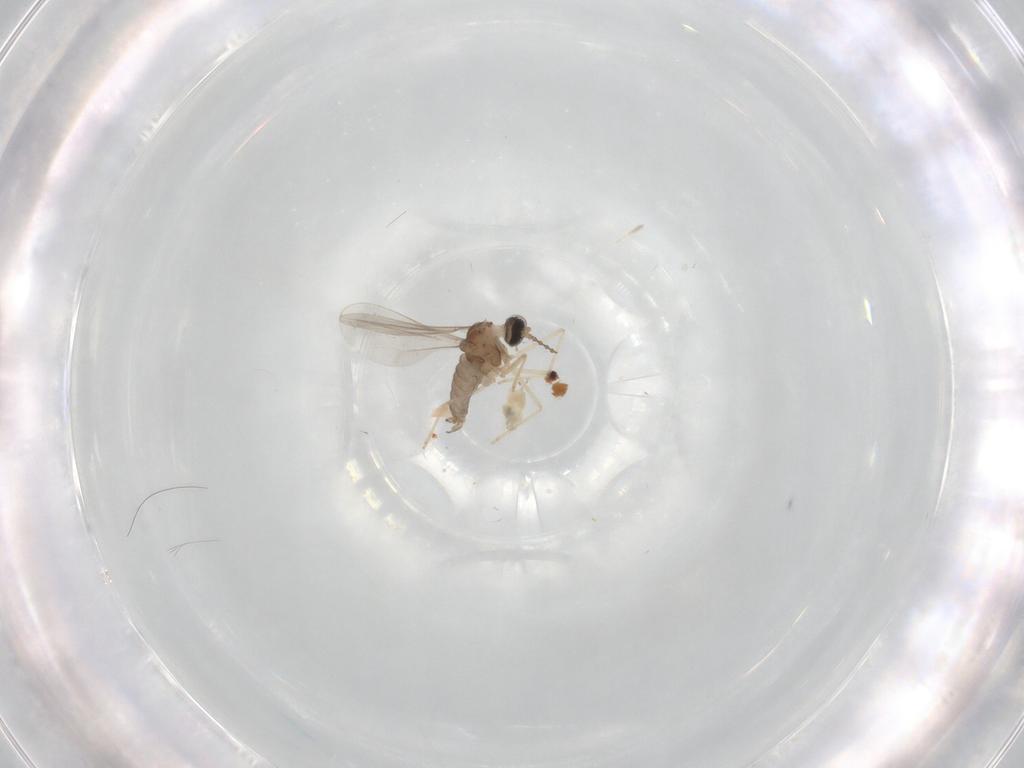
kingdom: Animalia
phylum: Arthropoda
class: Insecta
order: Diptera
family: Cecidomyiidae
